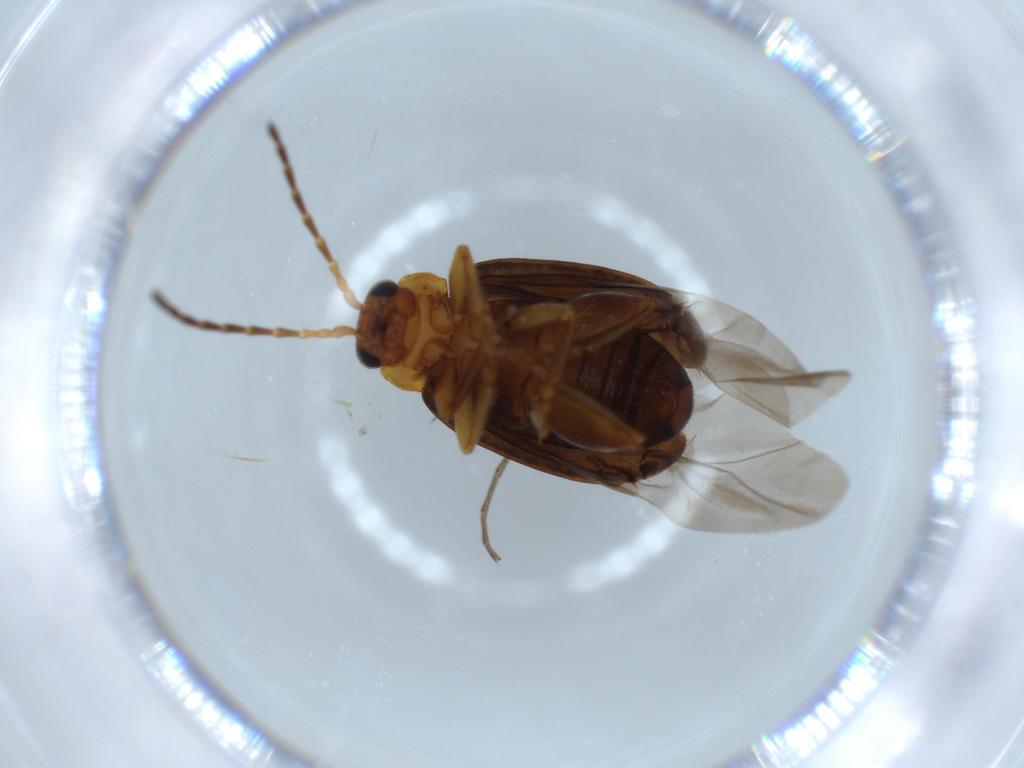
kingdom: Animalia
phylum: Arthropoda
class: Insecta
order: Coleoptera
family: Chrysomelidae
